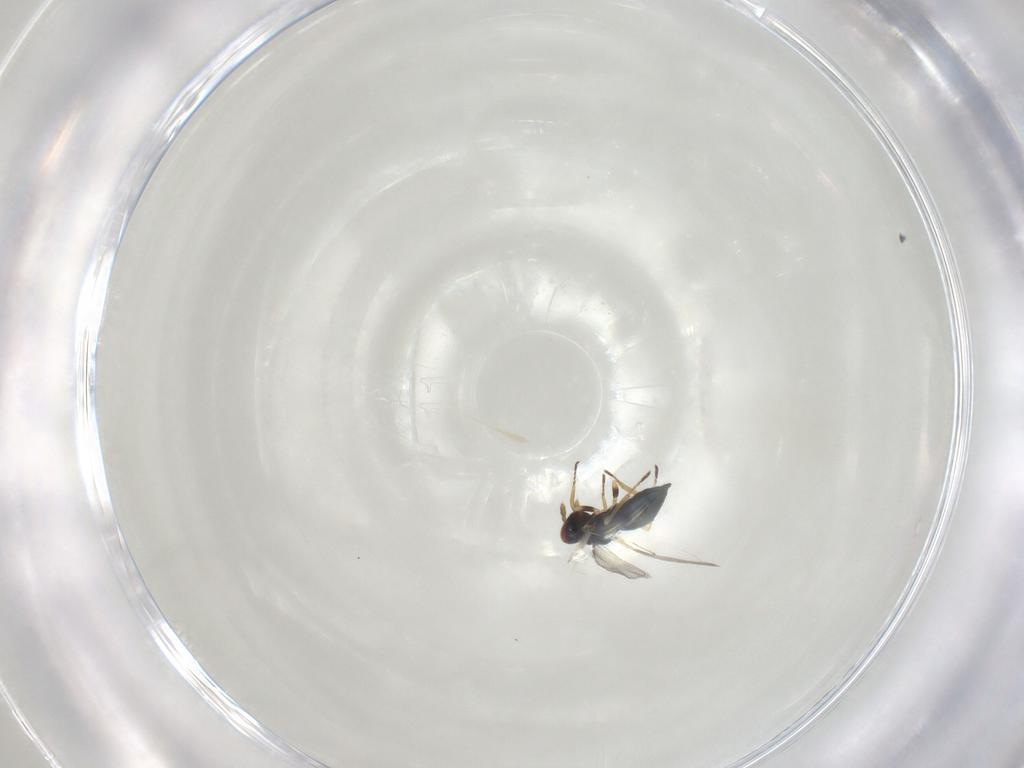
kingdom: Animalia
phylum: Arthropoda
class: Insecta
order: Hymenoptera
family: Eulophidae
